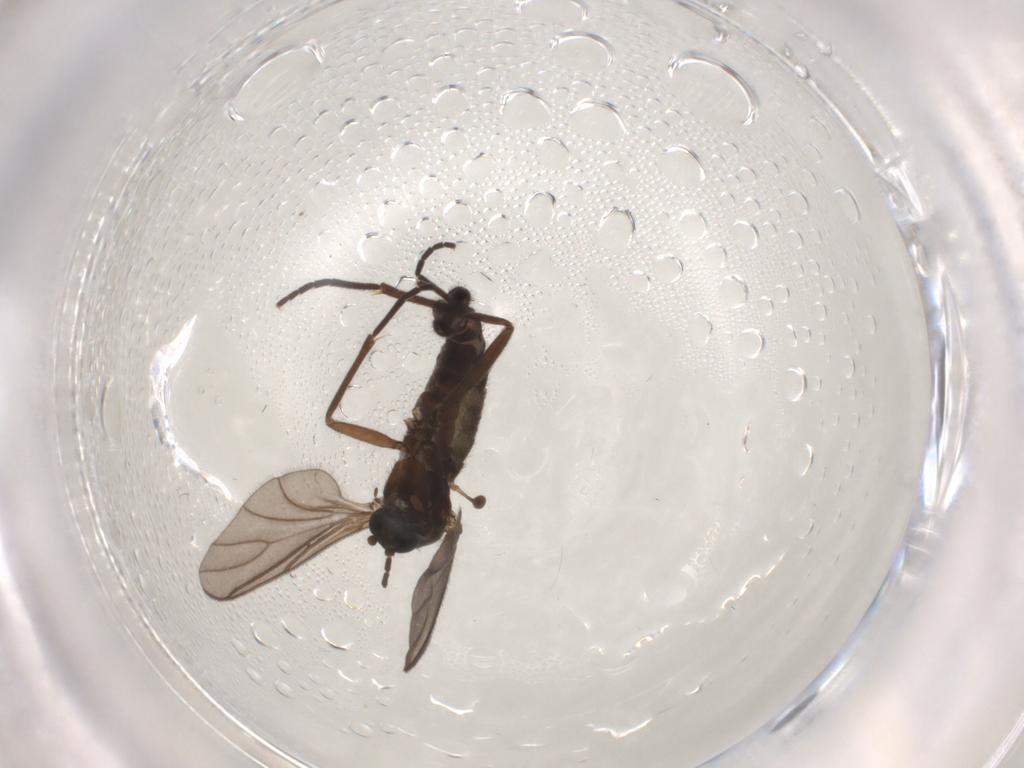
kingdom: Animalia
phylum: Arthropoda
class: Insecta
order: Diptera
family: Sciaridae
